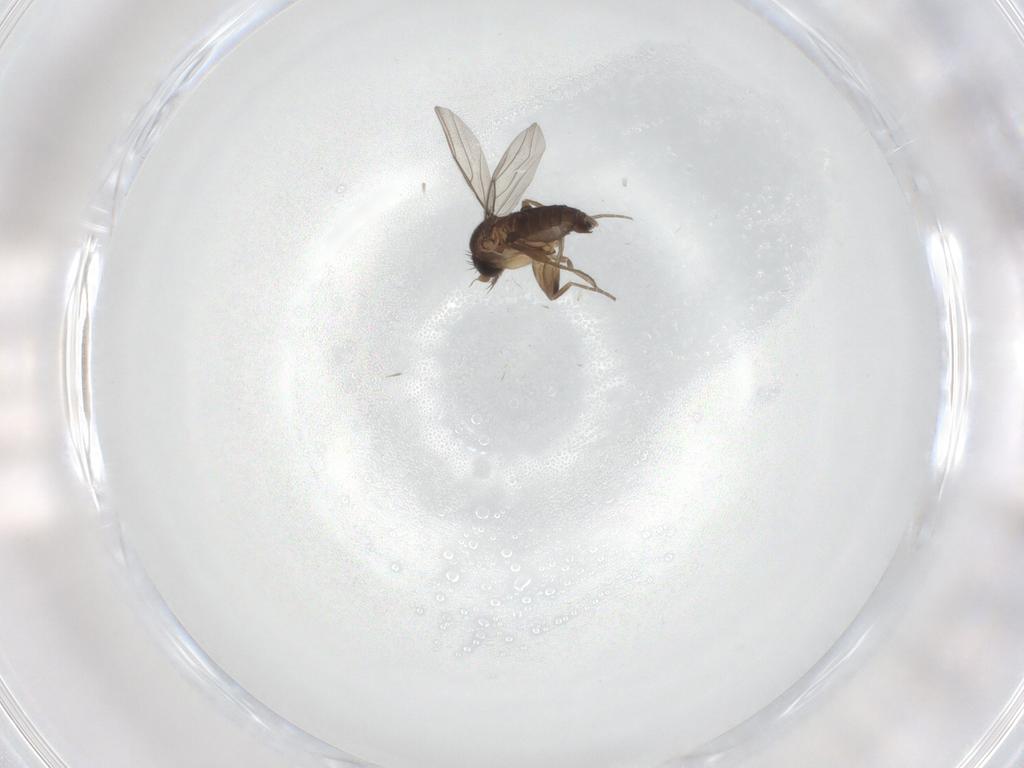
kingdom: Animalia
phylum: Arthropoda
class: Insecta
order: Diptera
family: Phoridae
